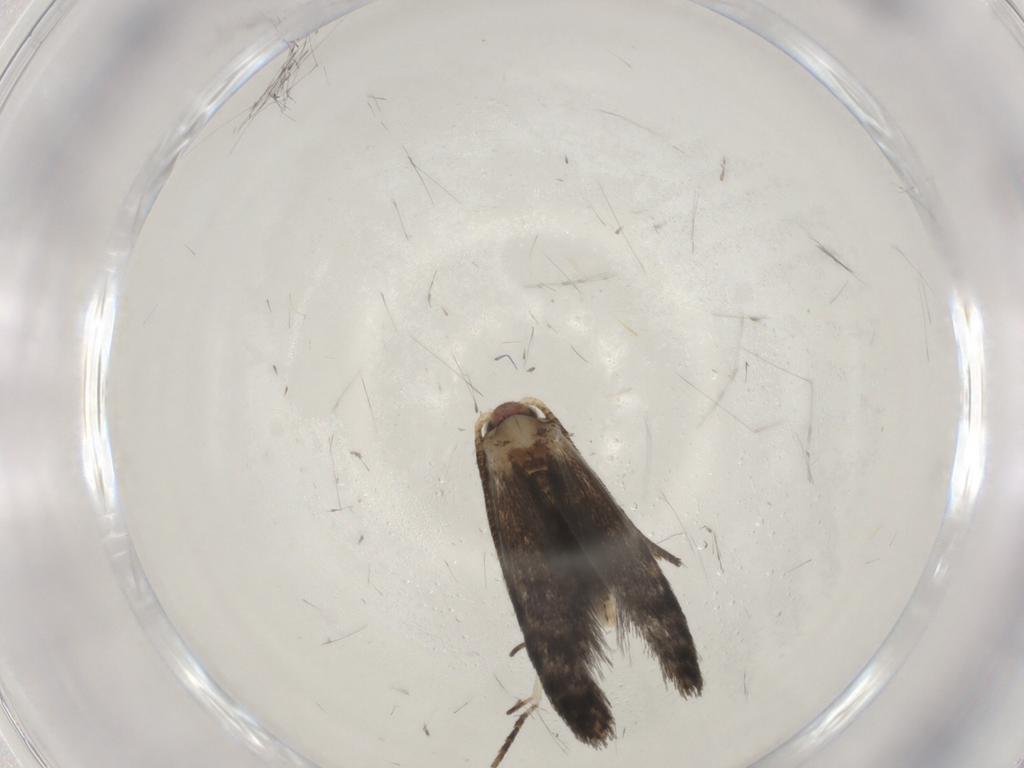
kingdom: Animalia
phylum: Arthropoda
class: Insecta
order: Lepidoptera
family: Tineidae
